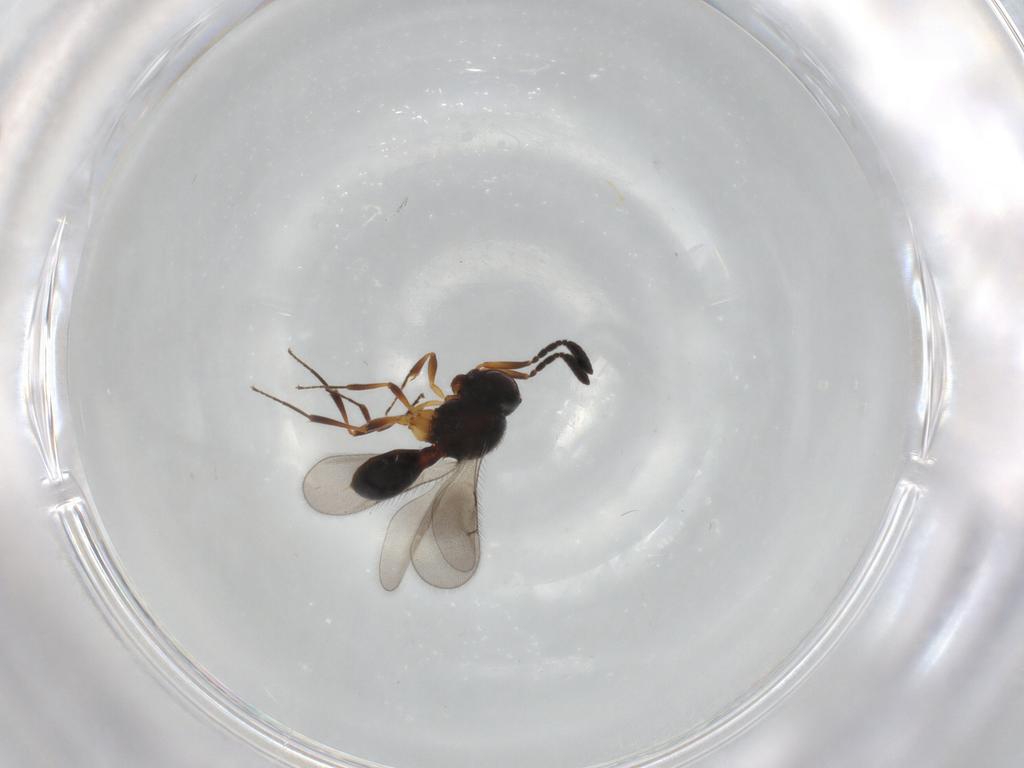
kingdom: Animalia
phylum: Arthropoda
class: Insecta
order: Hymenoptera
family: Scelionidae
